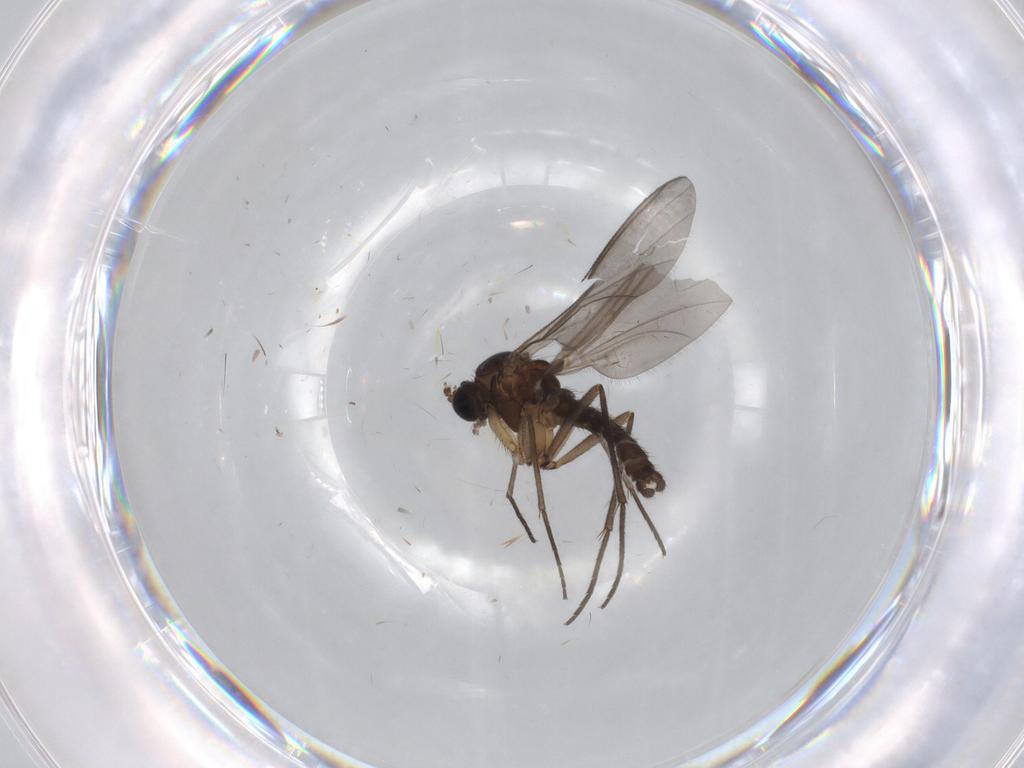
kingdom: Animalia
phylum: Arthropoda
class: Insecta
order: Diptera
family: Sciaridae
